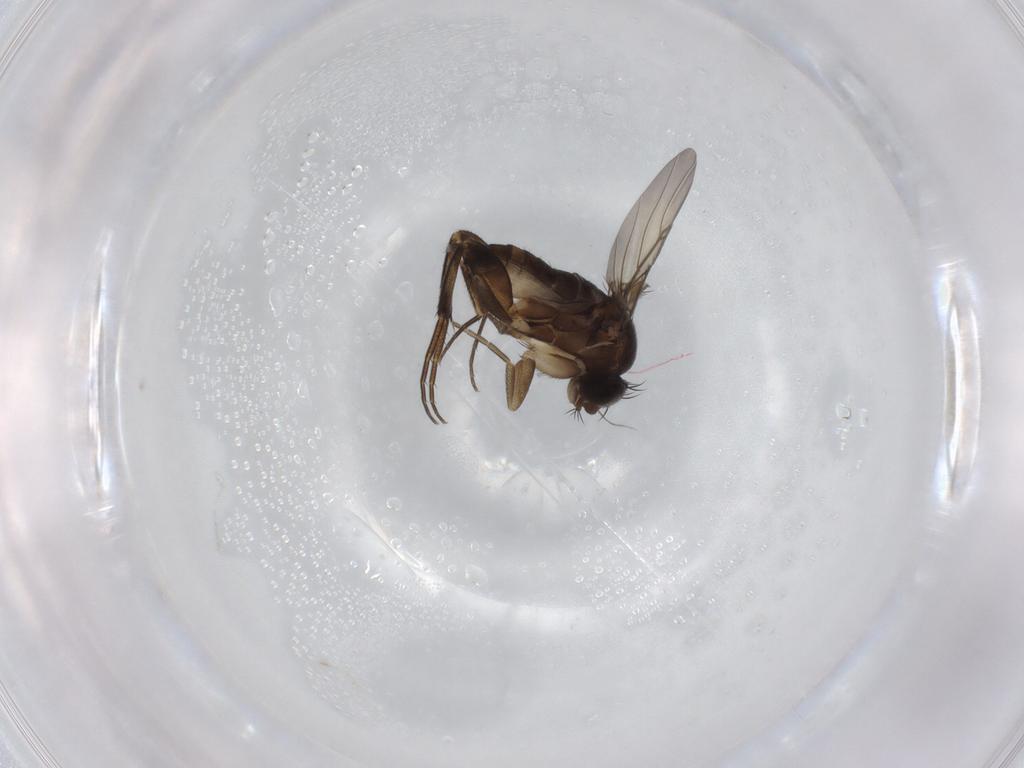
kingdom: Animalia
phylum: Arthropoda
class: Insecta
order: Diptera
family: Phoridae
